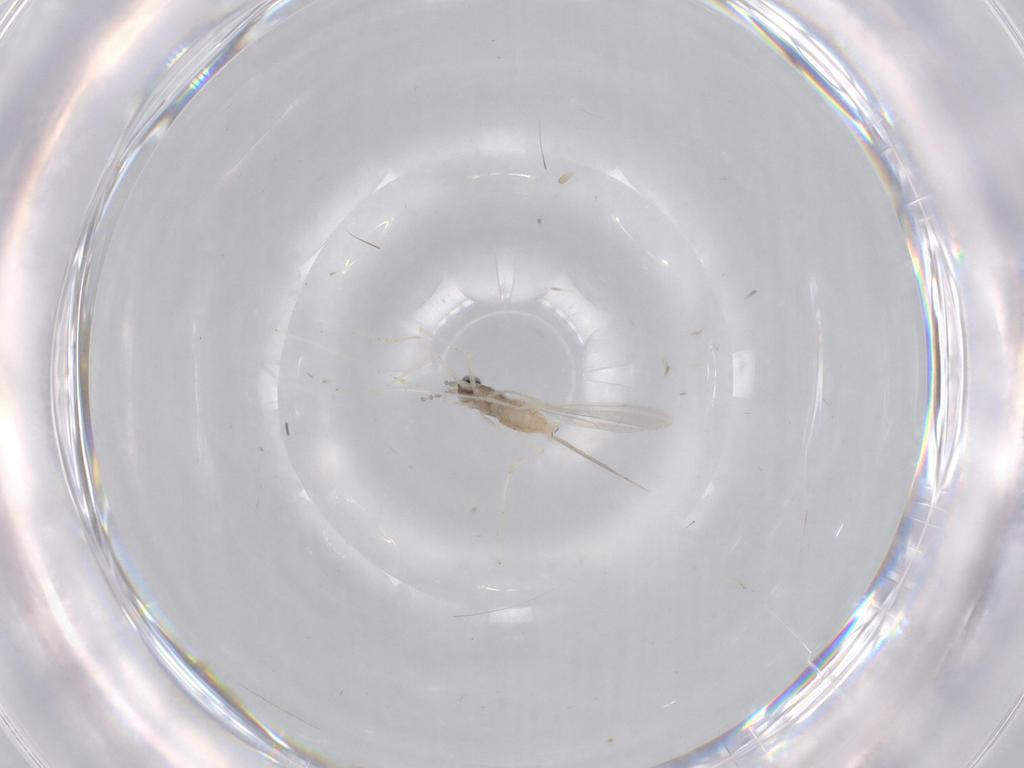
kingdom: Animalia
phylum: Arthropoda
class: Insecta
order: Diptera
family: Cecidomyiidae
